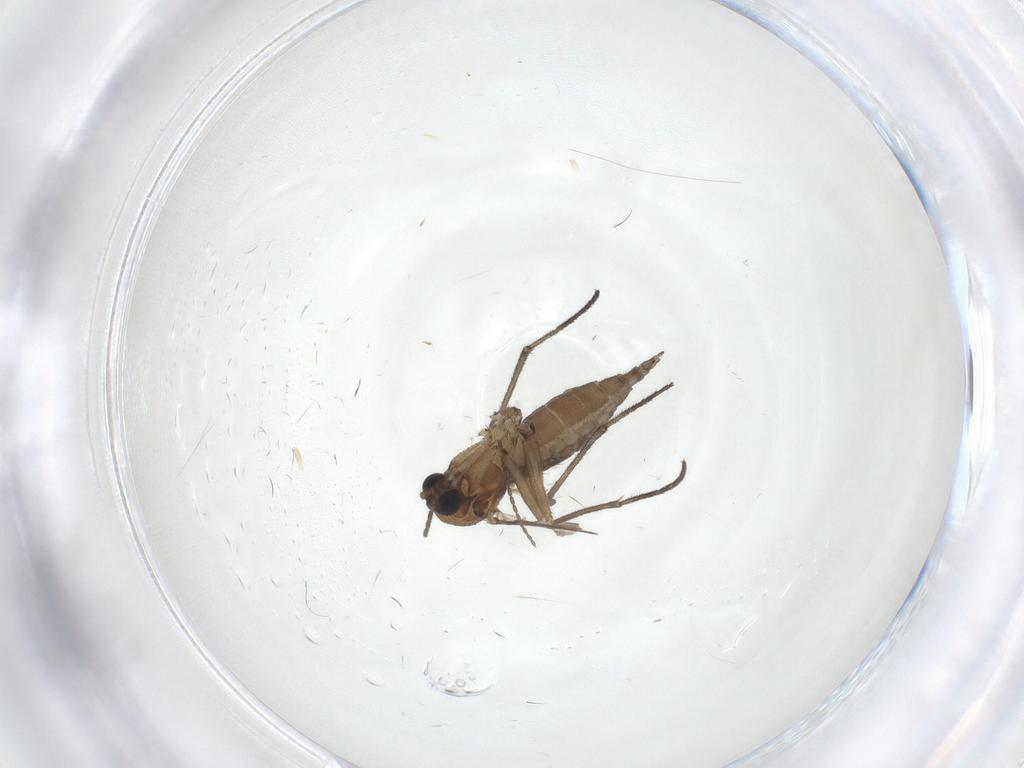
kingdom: Animalia
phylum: Arthropoda
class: Insecta
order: Diptera
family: Sciaridae
